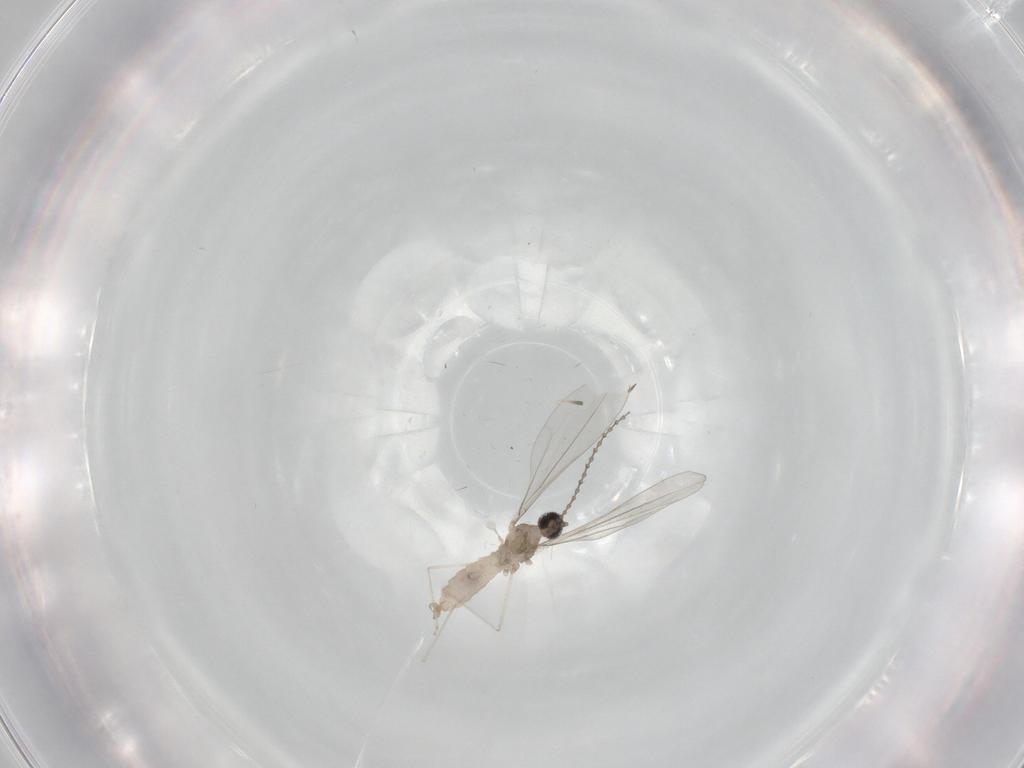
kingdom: Animalia
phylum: Arthropoda
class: Insecta
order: Diptera
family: Cecidomyiidae
